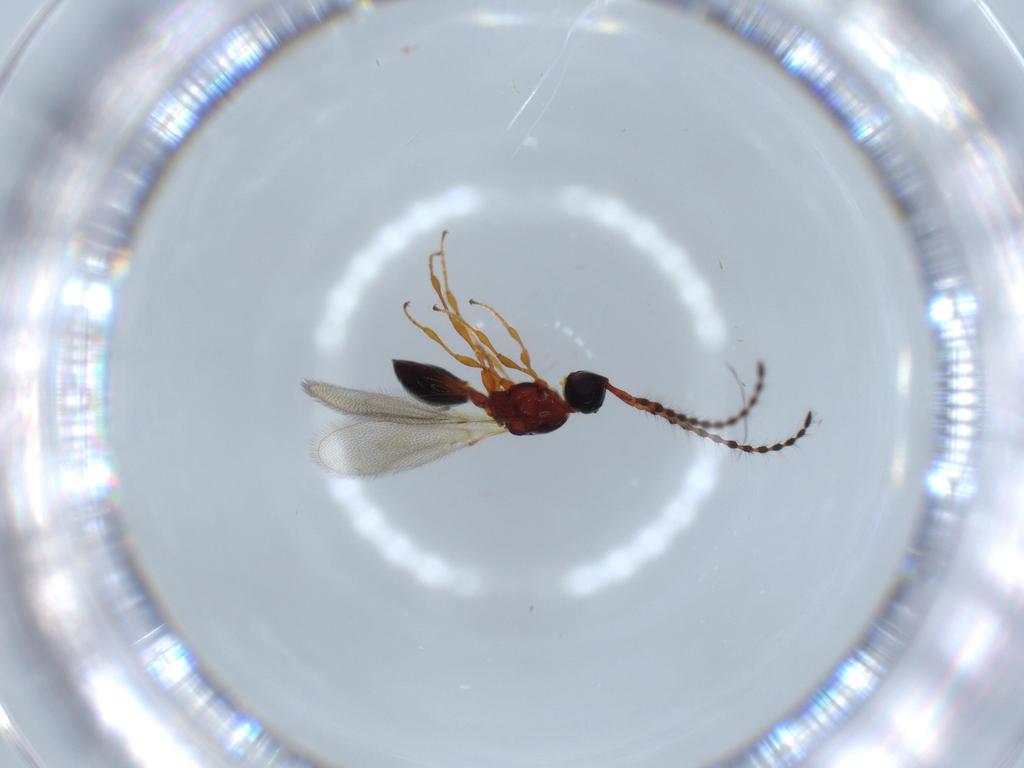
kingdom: Animalia
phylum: Arthropoda
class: Insecta
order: Hymenoptera
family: Diapriidae
